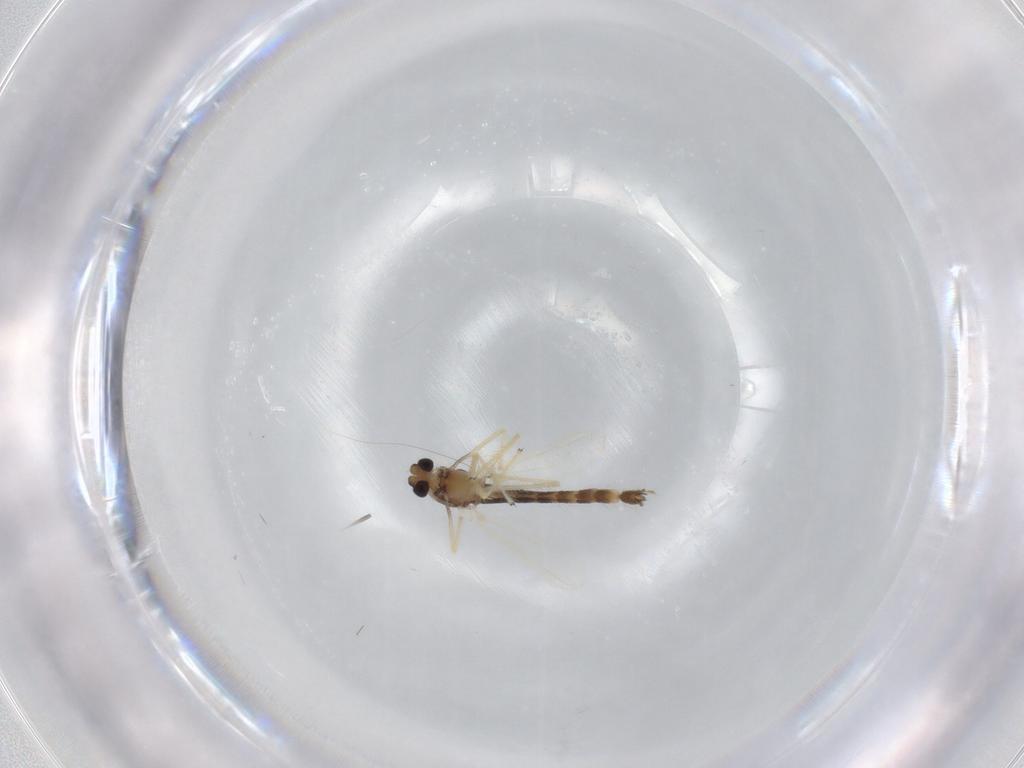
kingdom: Animalia
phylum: Arthropoda
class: Insecta
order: Diptera
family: Chironomidae
